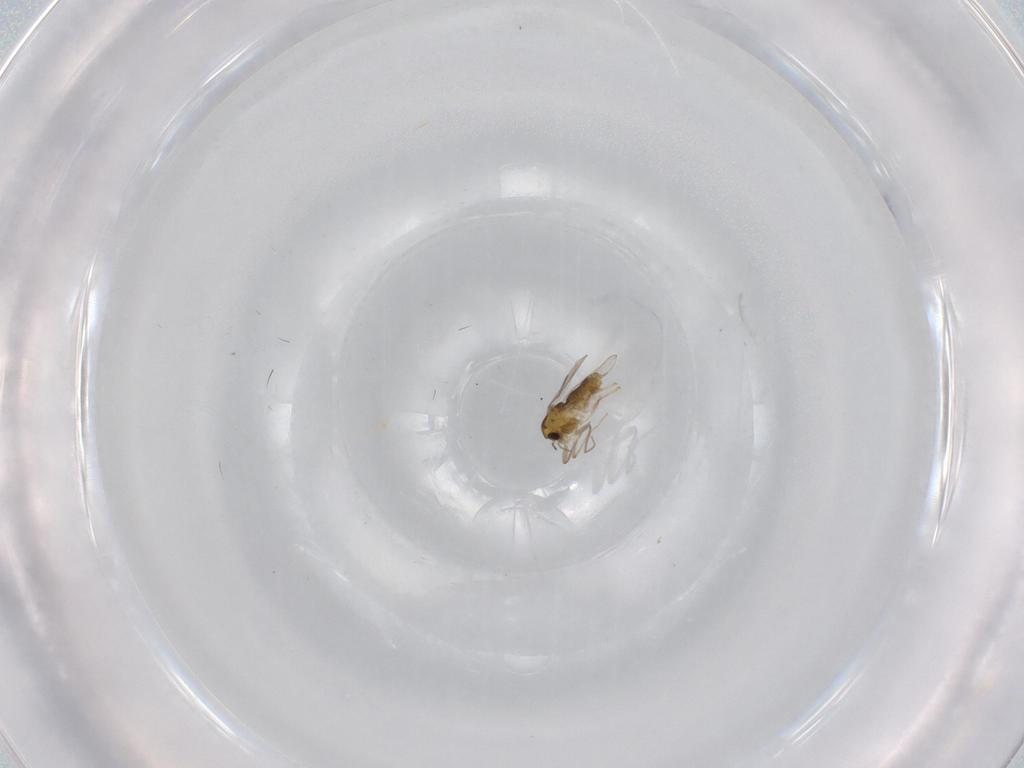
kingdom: Animalia
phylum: Arthropoda
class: Insecta
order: Diptera
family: Chironomidae
